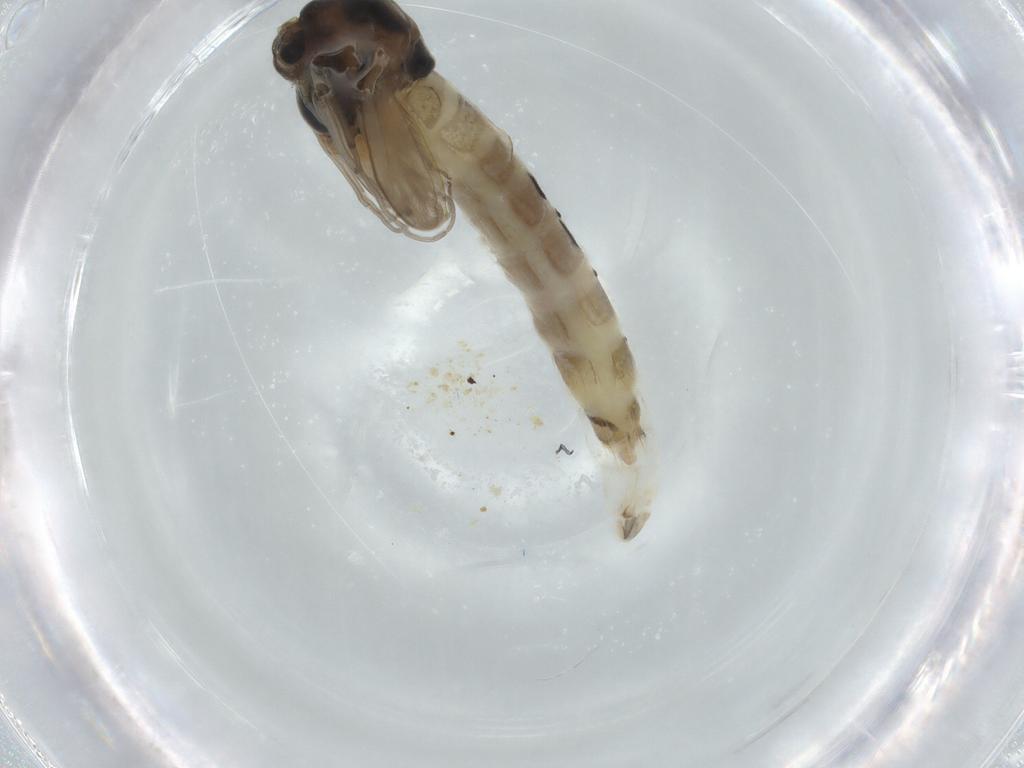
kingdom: Animalia
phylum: Arthropoda
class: Insecta
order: Diptera
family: Chironomidae
